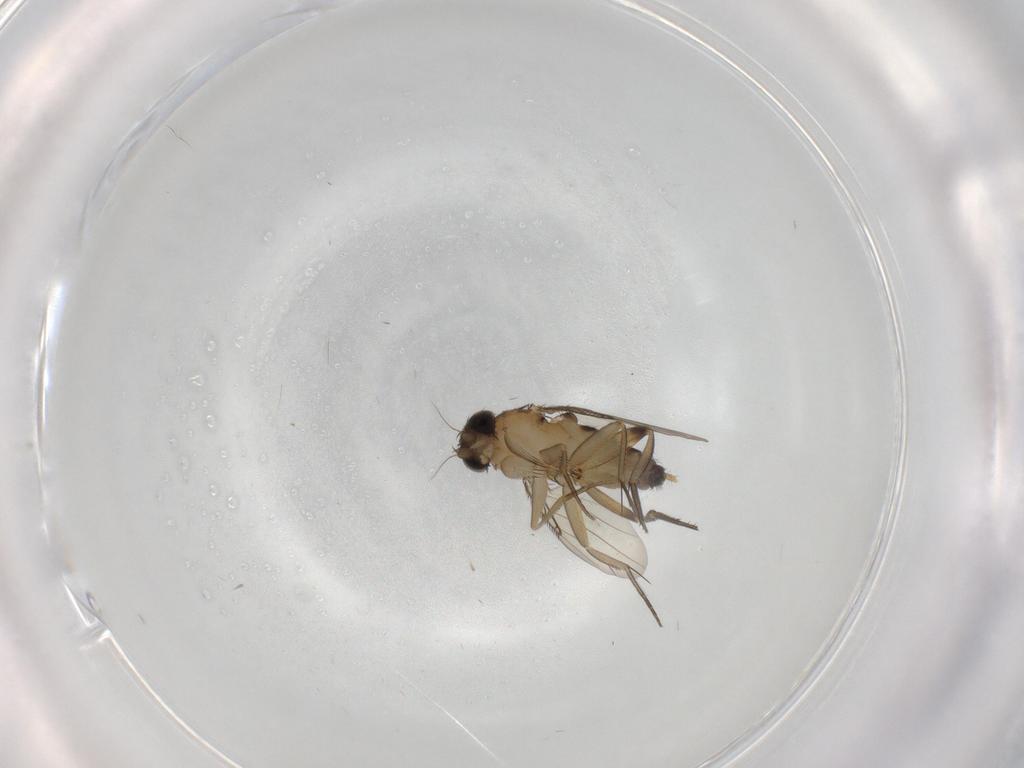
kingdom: Animalia
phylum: Arthropoda
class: Insecta
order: Diptera
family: Phoridae
